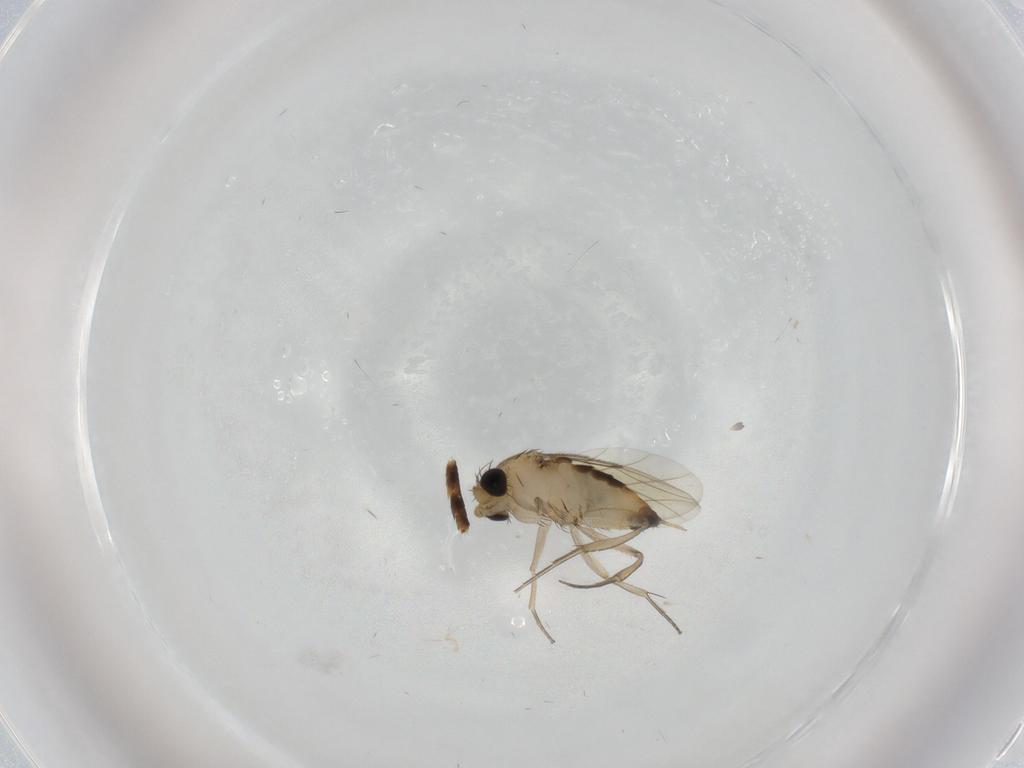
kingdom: Animalia
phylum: Arthropoda
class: Insecta
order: Diptera
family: Phoridae
